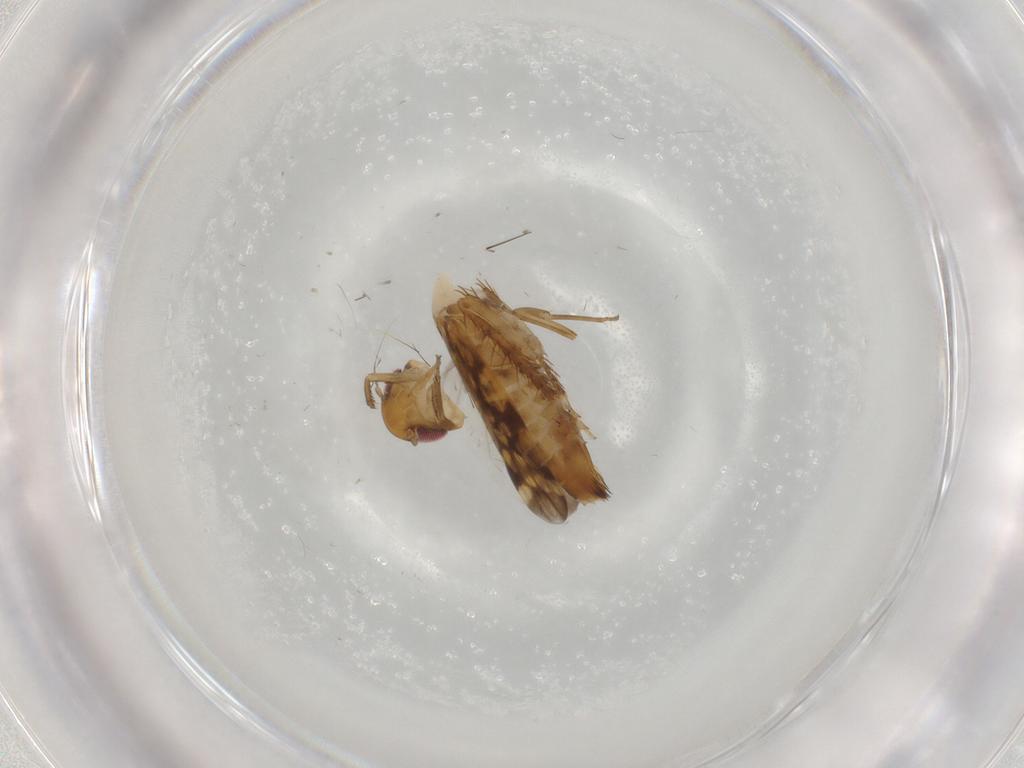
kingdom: Animalia
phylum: Arthropoda
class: Insecta
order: Hemiptera
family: Cicadellidae
